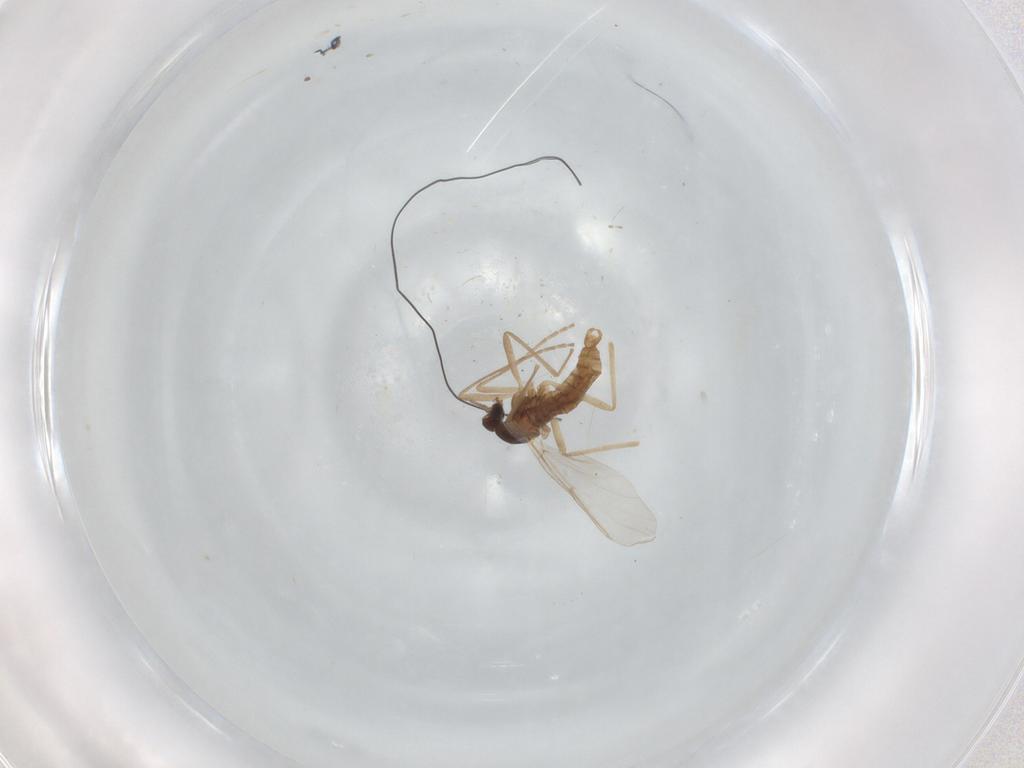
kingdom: Animalia
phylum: Arthropoda
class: Insecta
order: Diptera
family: Cecidomyiidae
